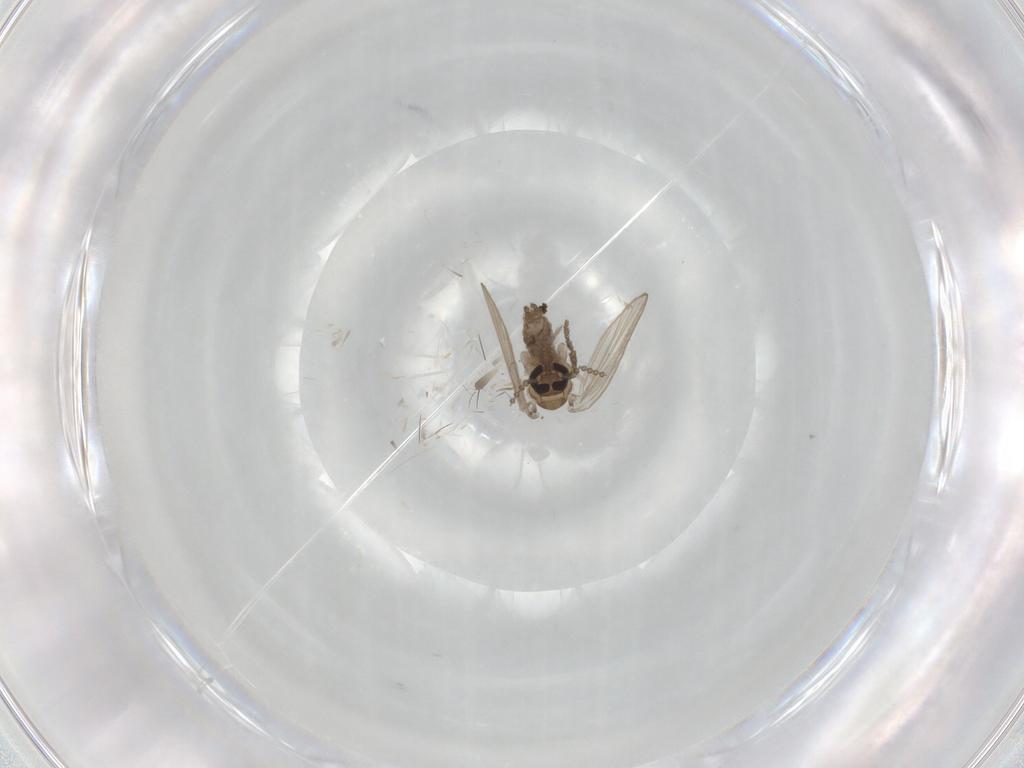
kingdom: Animalia
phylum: Arthropoda
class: Insecta
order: Diptera
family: Psychodidae
